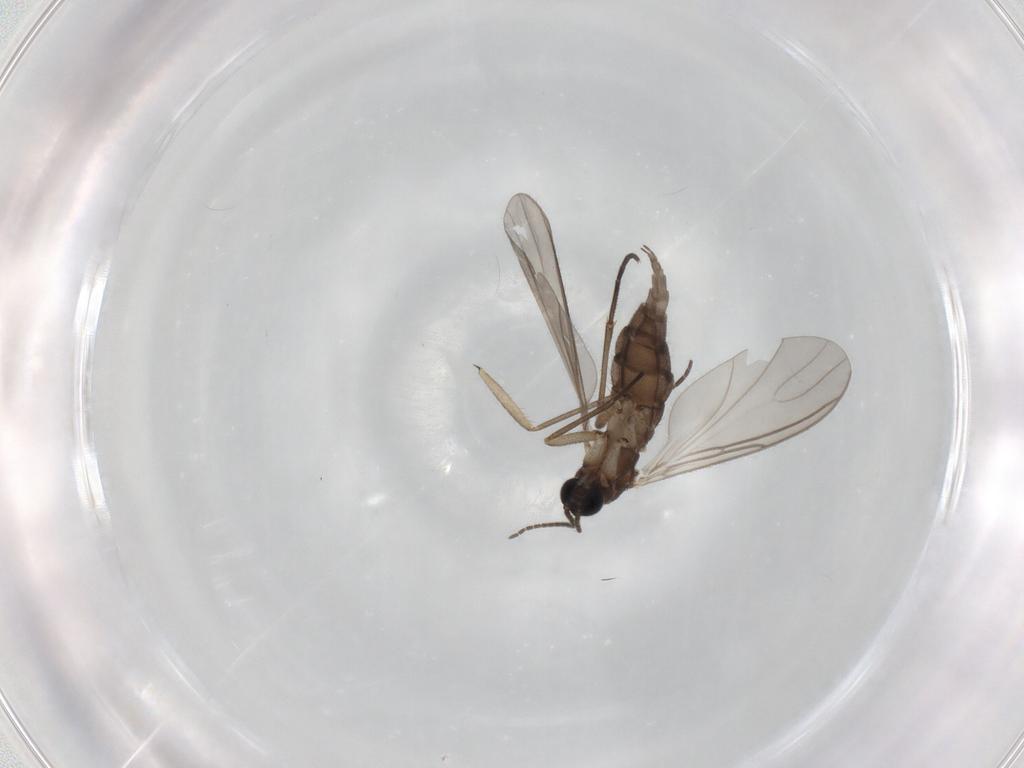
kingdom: Animalia
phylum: Arthropoda
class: Insecta
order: Diptera
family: Sciaridae
